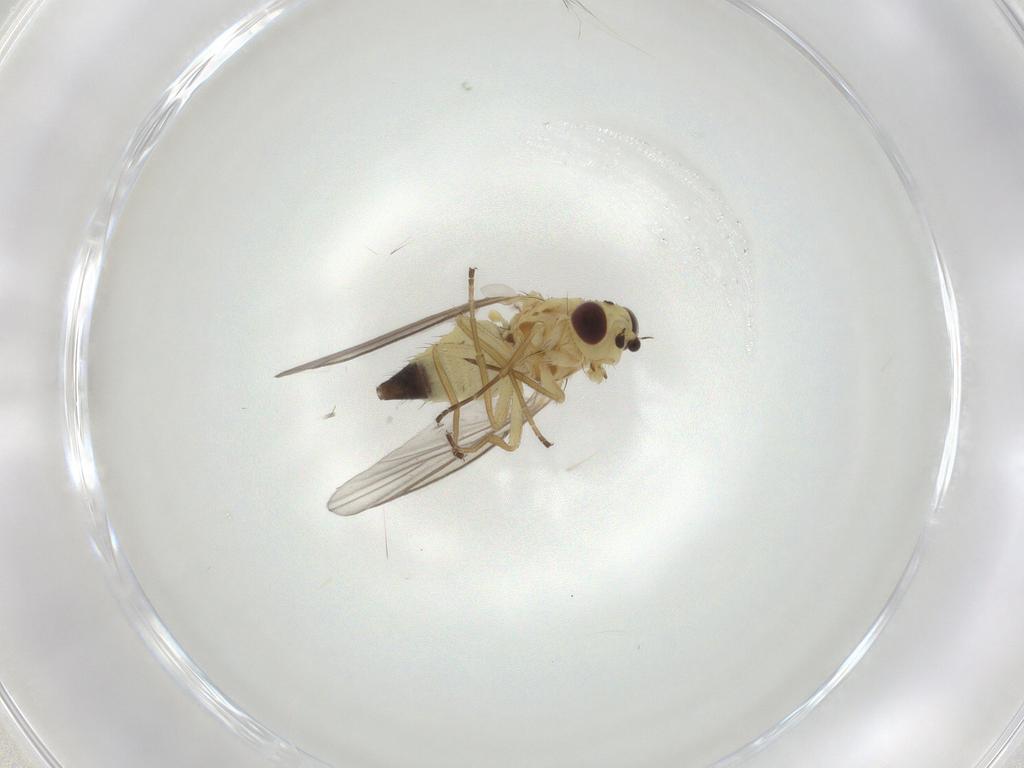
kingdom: Animalia
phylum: Arthropoda
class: Insecta
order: Diptera
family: Agromyzidae
